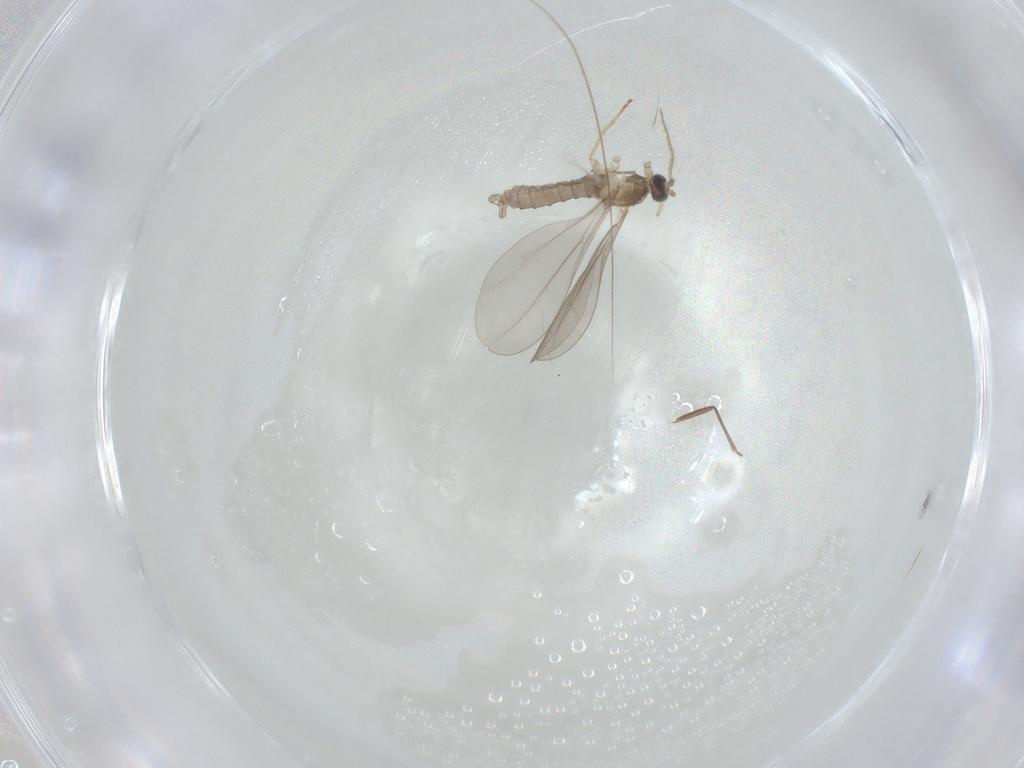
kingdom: Animalia
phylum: Arthropoda
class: Insecta
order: Diptera
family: Cecidomyiidae
